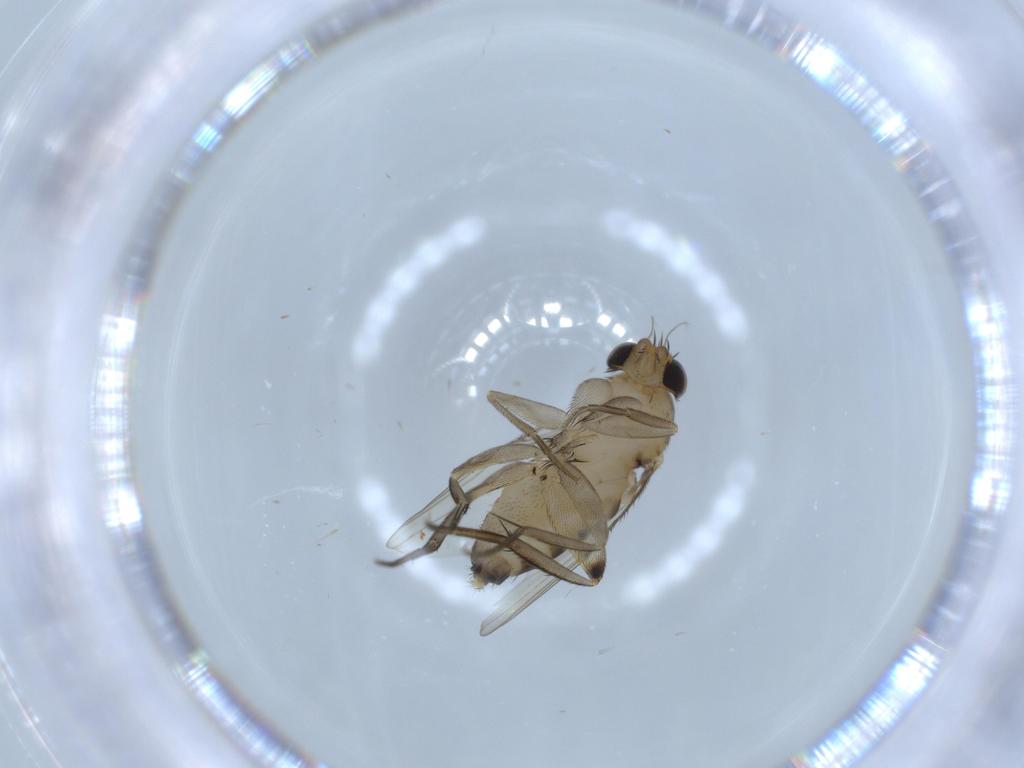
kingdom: Animalia
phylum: Arthropoda
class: Insecta
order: Diptera
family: Phoridae
